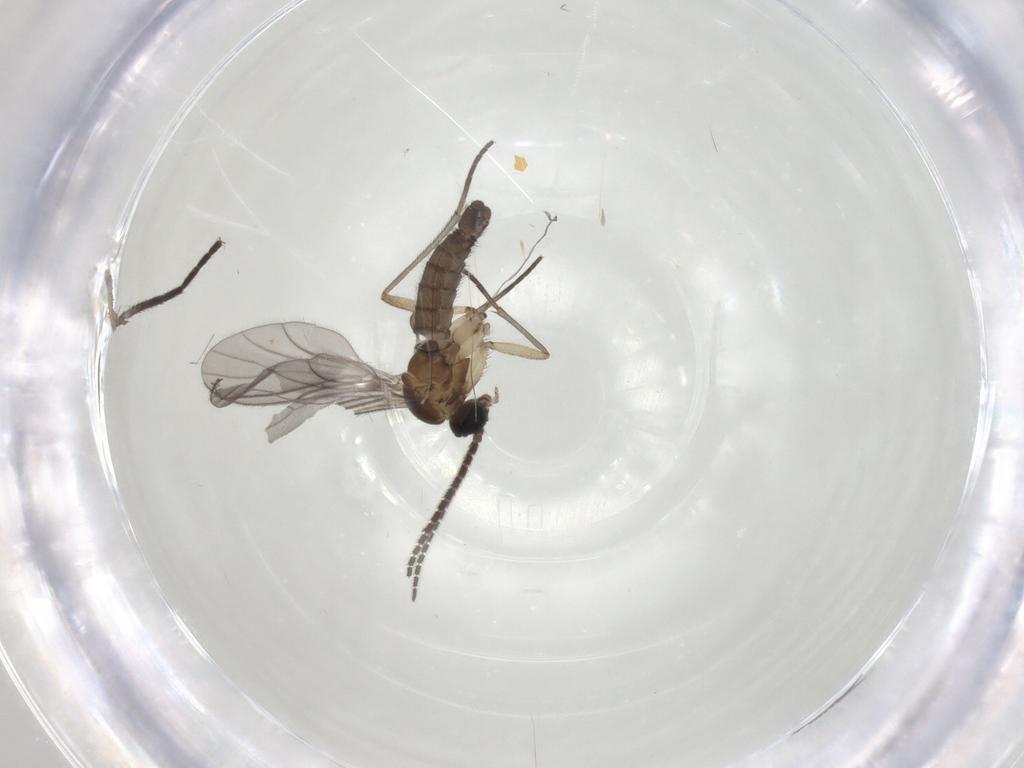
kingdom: Animalia
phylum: Arthropoda
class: Insecta
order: Diptera
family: Sciaridae
